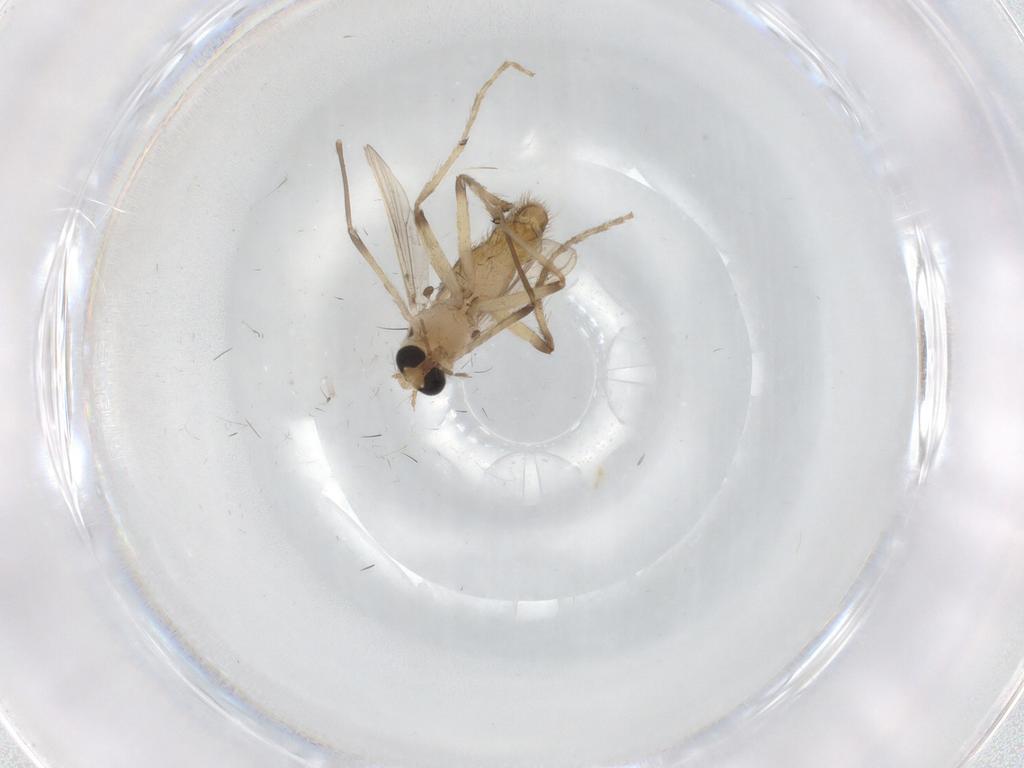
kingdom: Animalia
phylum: Arthropoda
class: Insecta
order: Diptera
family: Chironomidae
